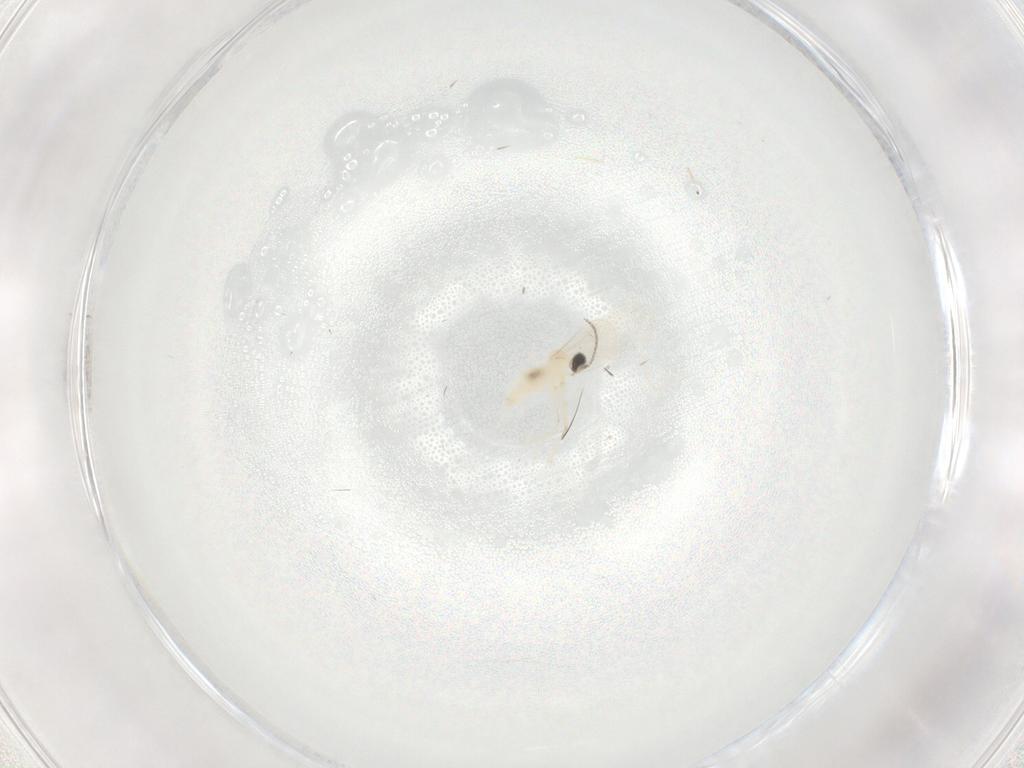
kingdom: Animalia
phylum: Arthropoda
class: Insecta
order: Diptera
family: Cecidomyiidae
